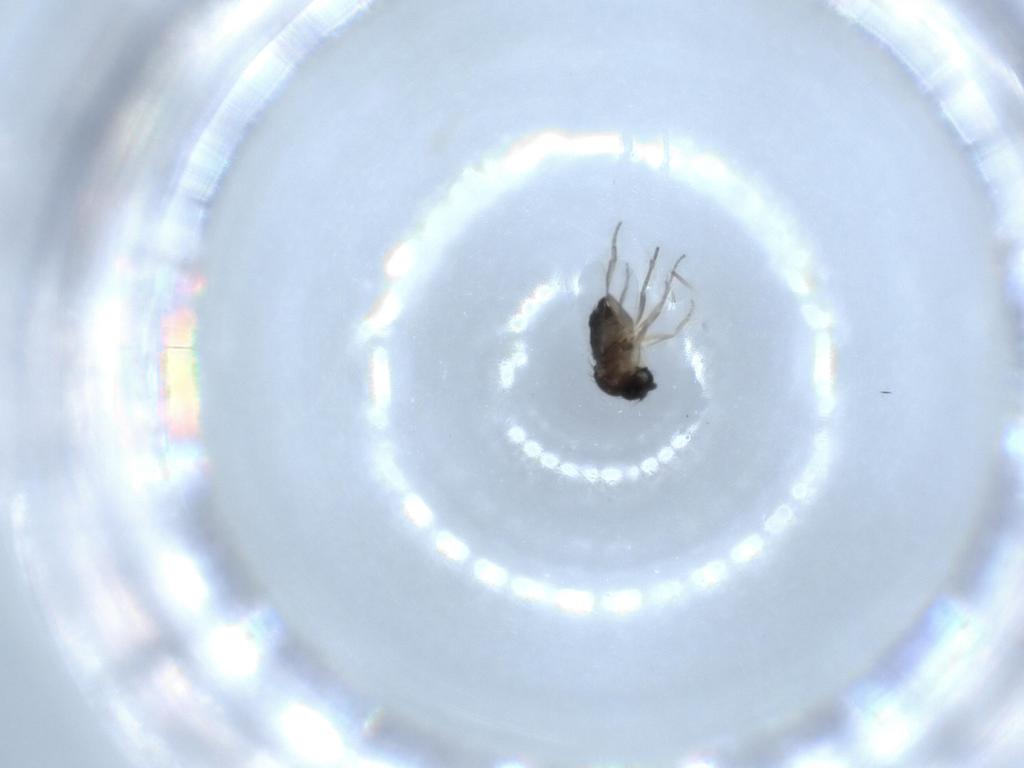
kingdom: Animalia
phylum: Arthropoda
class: Insecta
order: Diptera
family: Phoridae
